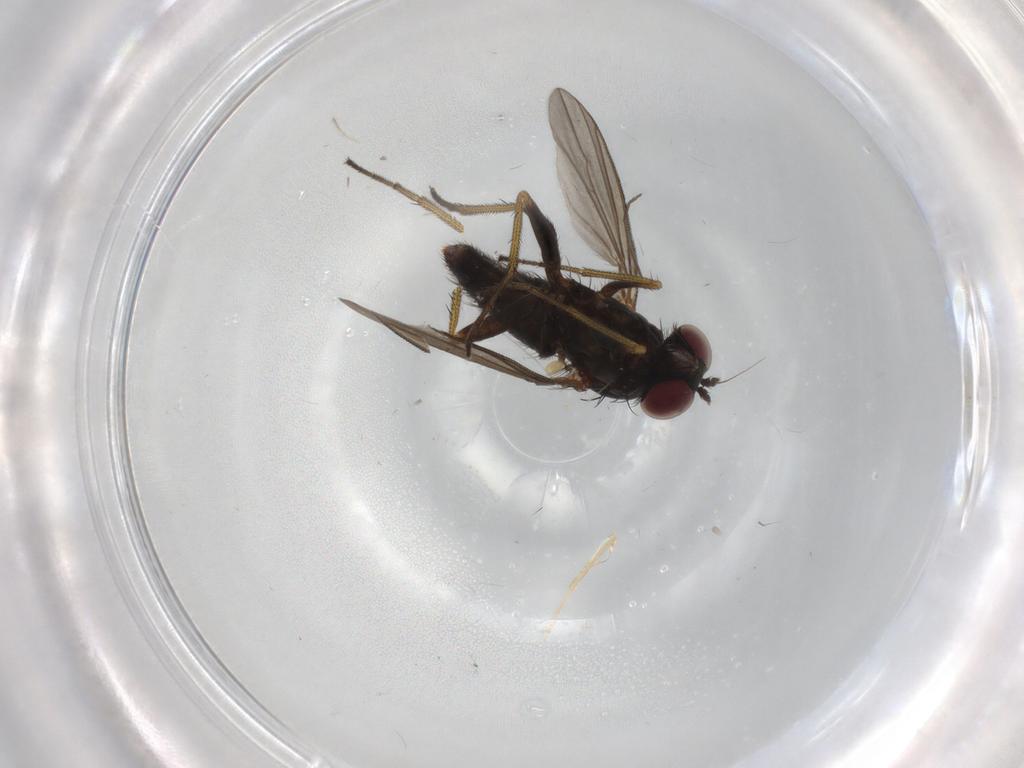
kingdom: Animalia
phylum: Arthropoda
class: Insecta
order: Diptera
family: Dolichopodidae
